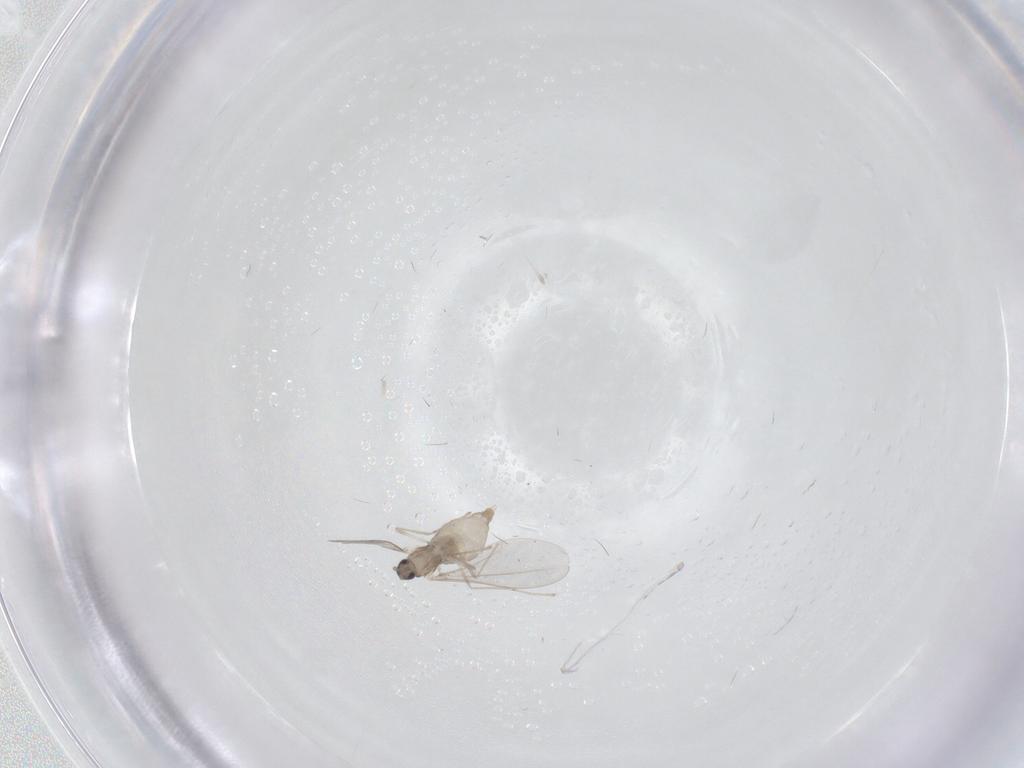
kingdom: Animalia
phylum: Arthropoda
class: Insecta
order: Diptera
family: Cecidomyiidae
